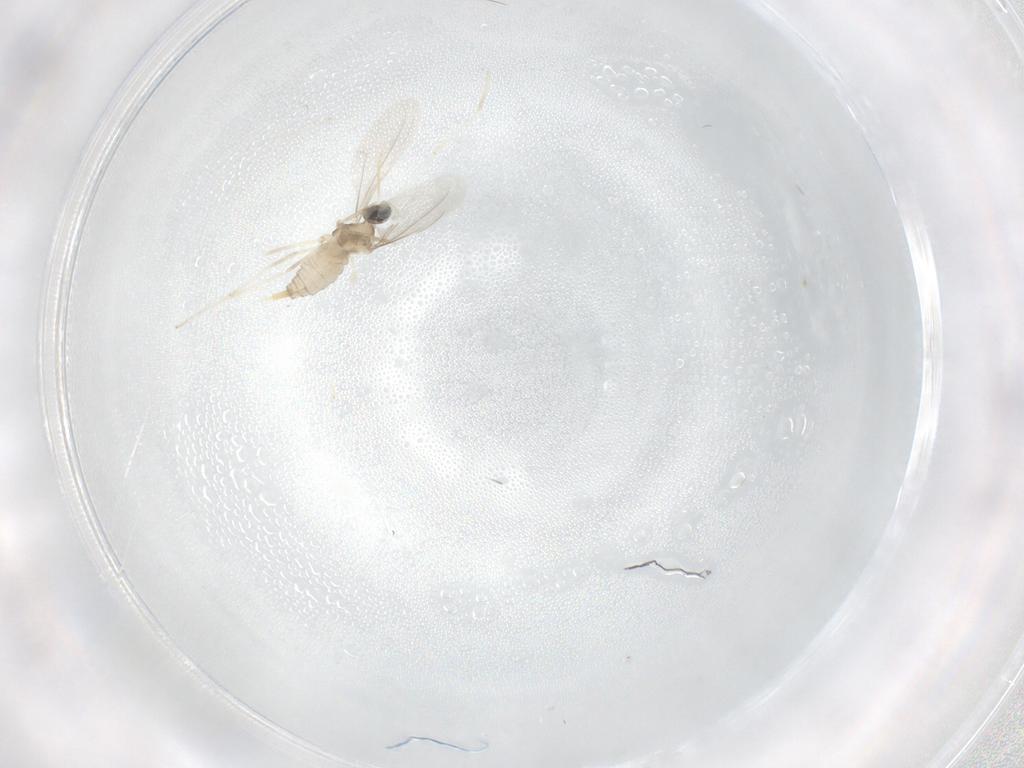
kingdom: Animalia
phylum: Arthropoda
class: Insecta
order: Diptera
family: Cecidomyiidae
